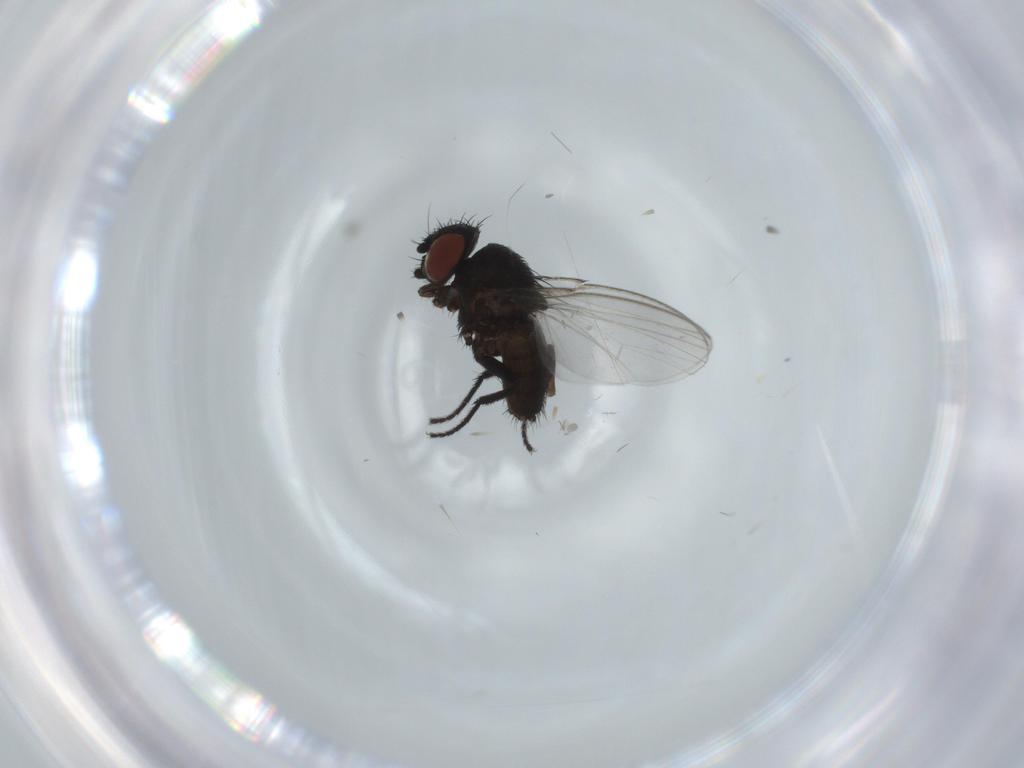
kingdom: Animalia
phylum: Arthropoda
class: Insecta
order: Diptera
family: Milichiidae
